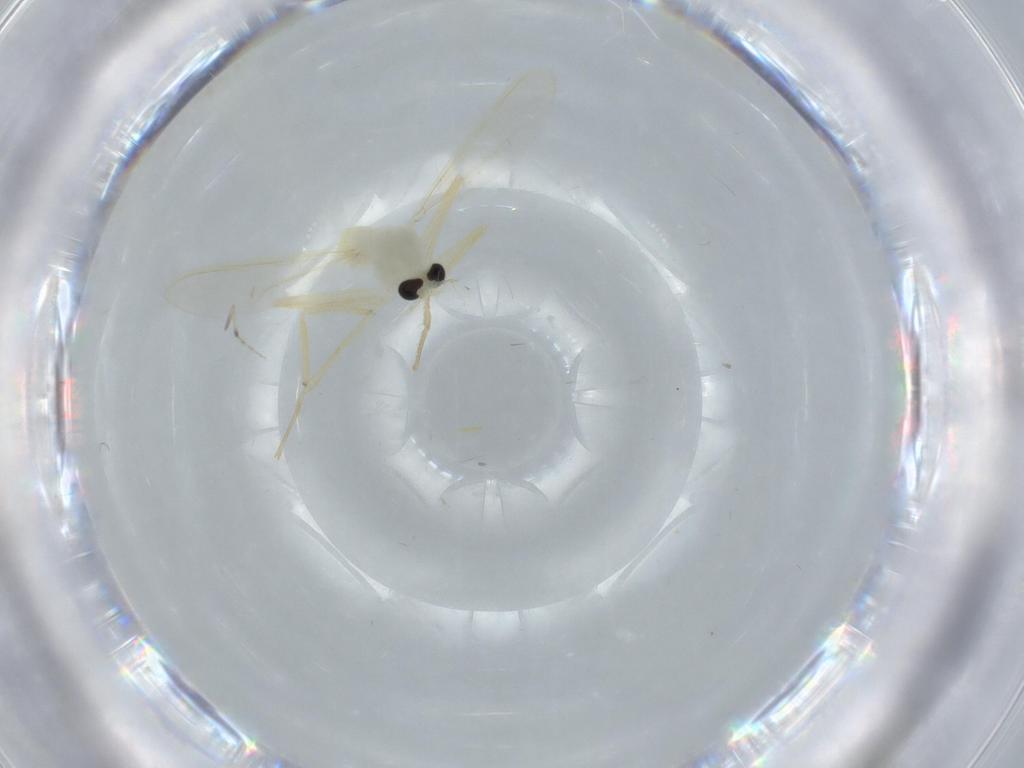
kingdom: Animalia
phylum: Arthropoda
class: Insecta
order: Diptera
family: Chironomidae
